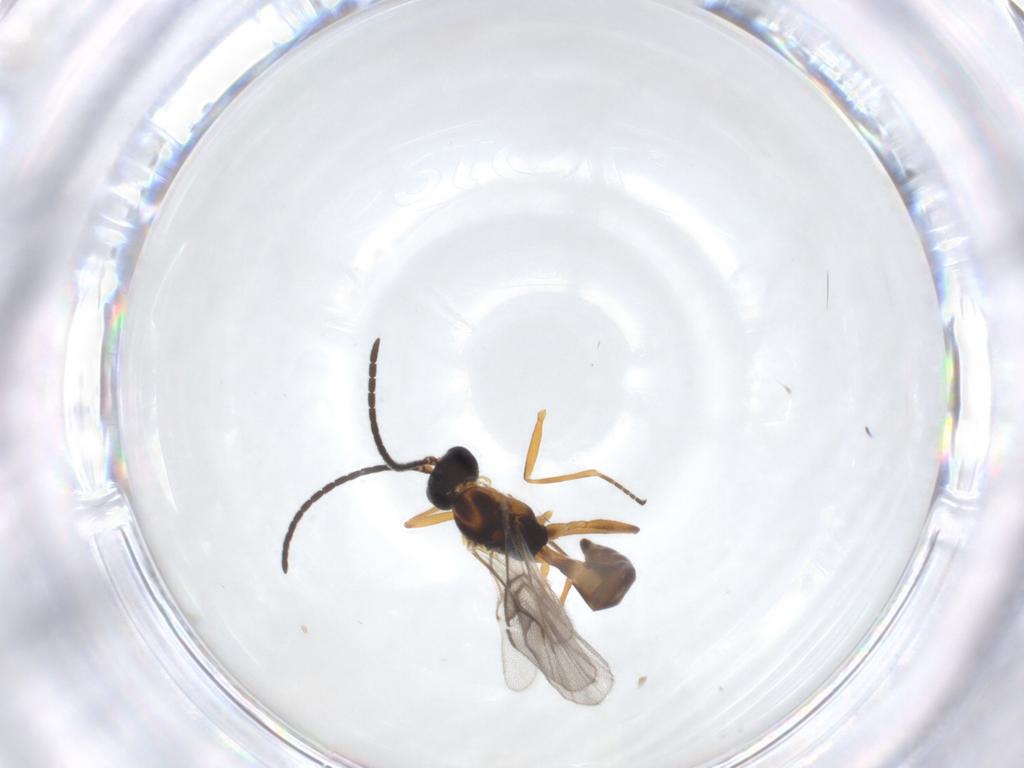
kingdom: Animalia
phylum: Arthropoda
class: Insecta
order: Hymenoptera
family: Braconidae
